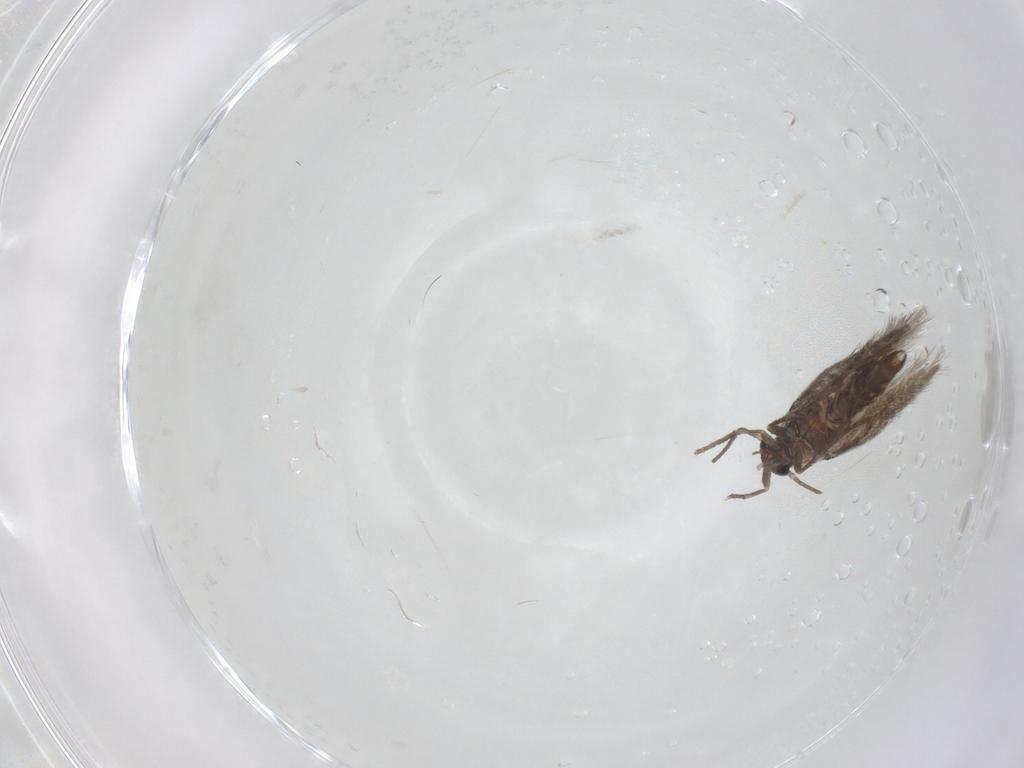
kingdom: Animalia
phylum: Arthropoda
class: Insecta
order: Lepidoptera
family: Heliozelidae
